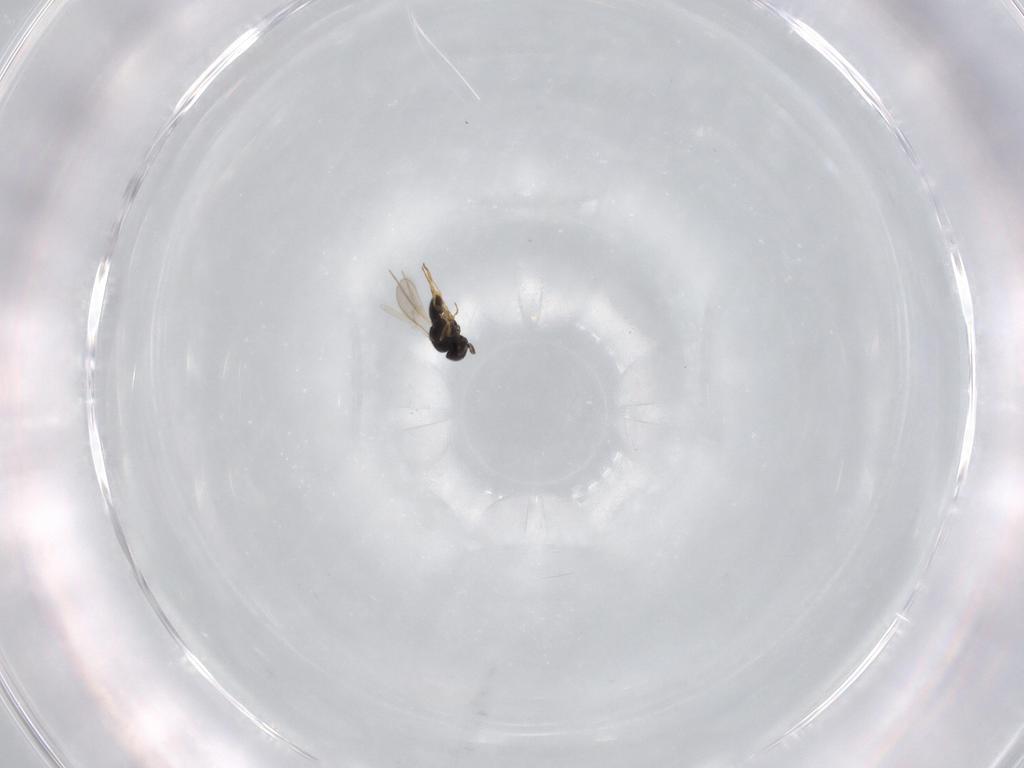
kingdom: Animalia
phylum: Arthropoda
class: Insecta
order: Hymenoptera
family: Scelionidae
